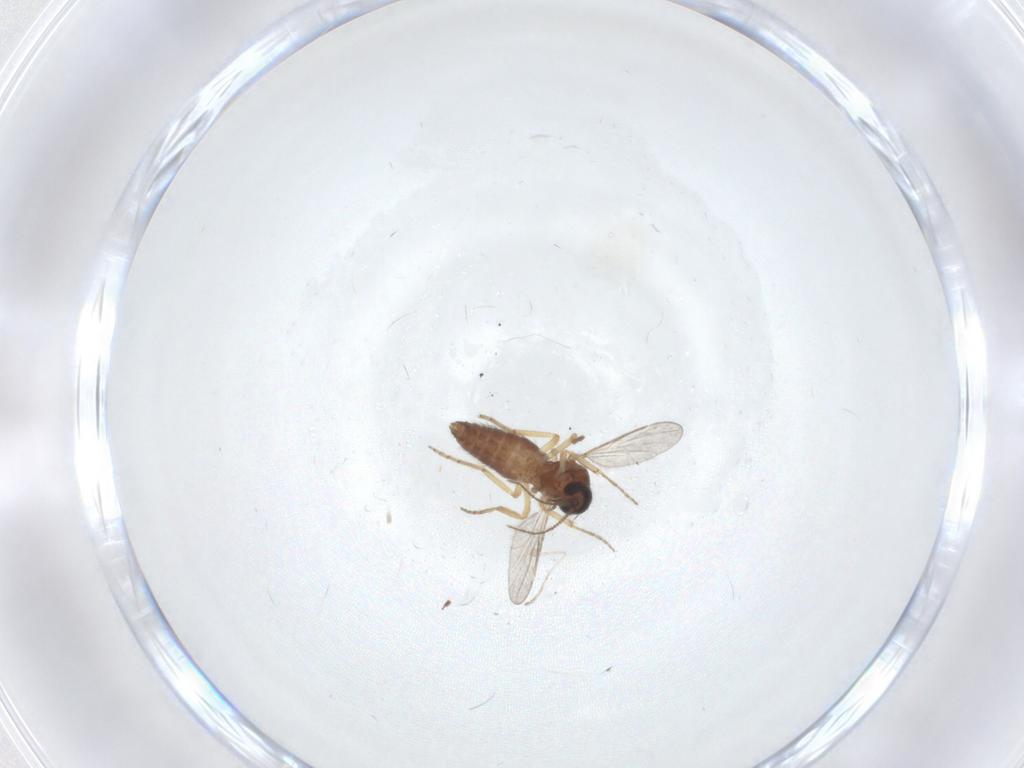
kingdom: Animalia
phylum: Arthropoda
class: Insecta
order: Diptera
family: Ceratopogonidae
